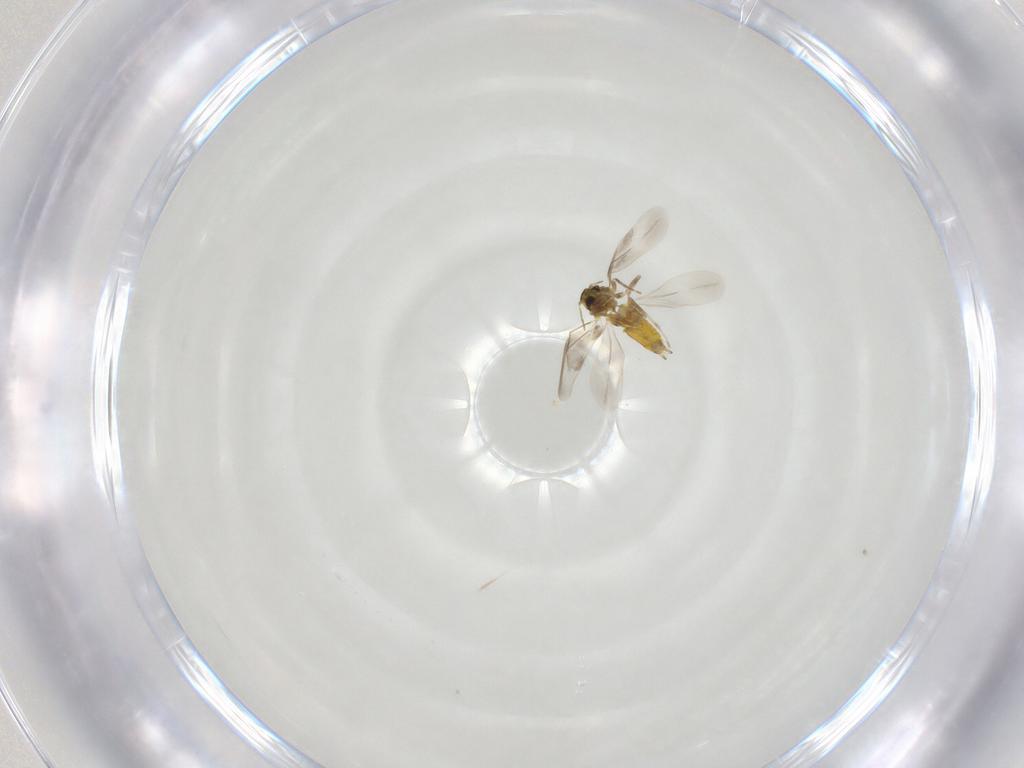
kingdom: Animalia
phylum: Arthropoda
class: Insecta
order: Hemiptera
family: Aleyrodidae
